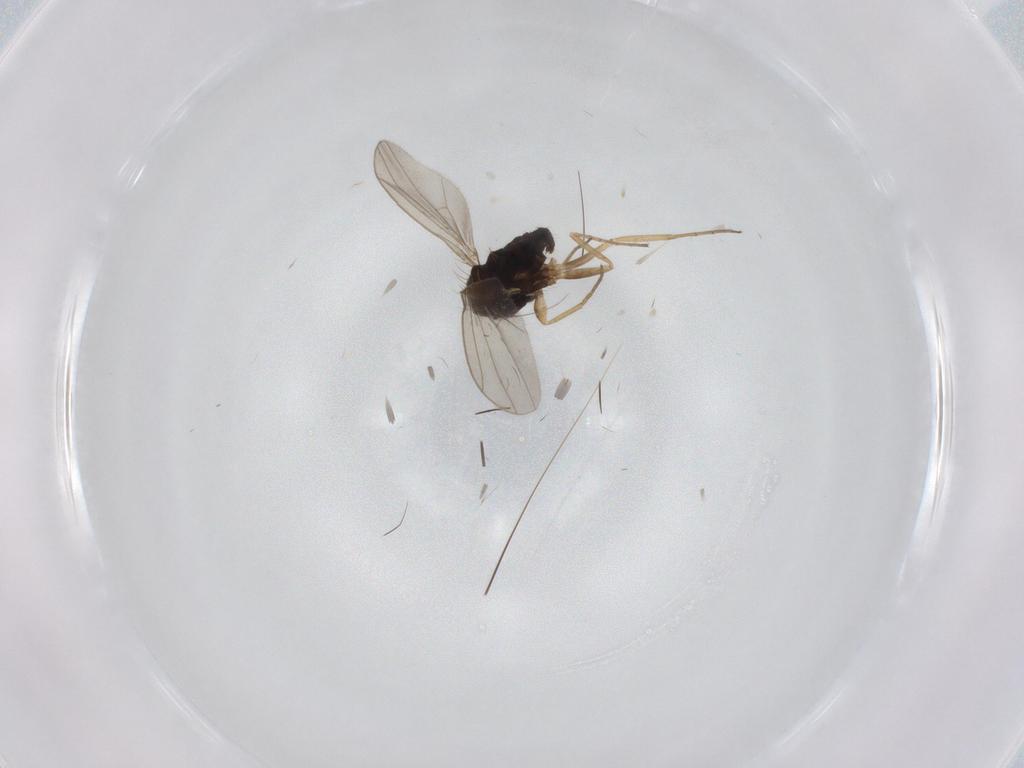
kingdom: Animalia
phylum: Arthropoda
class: Insecta
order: Diptera
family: Dolichopodidae
